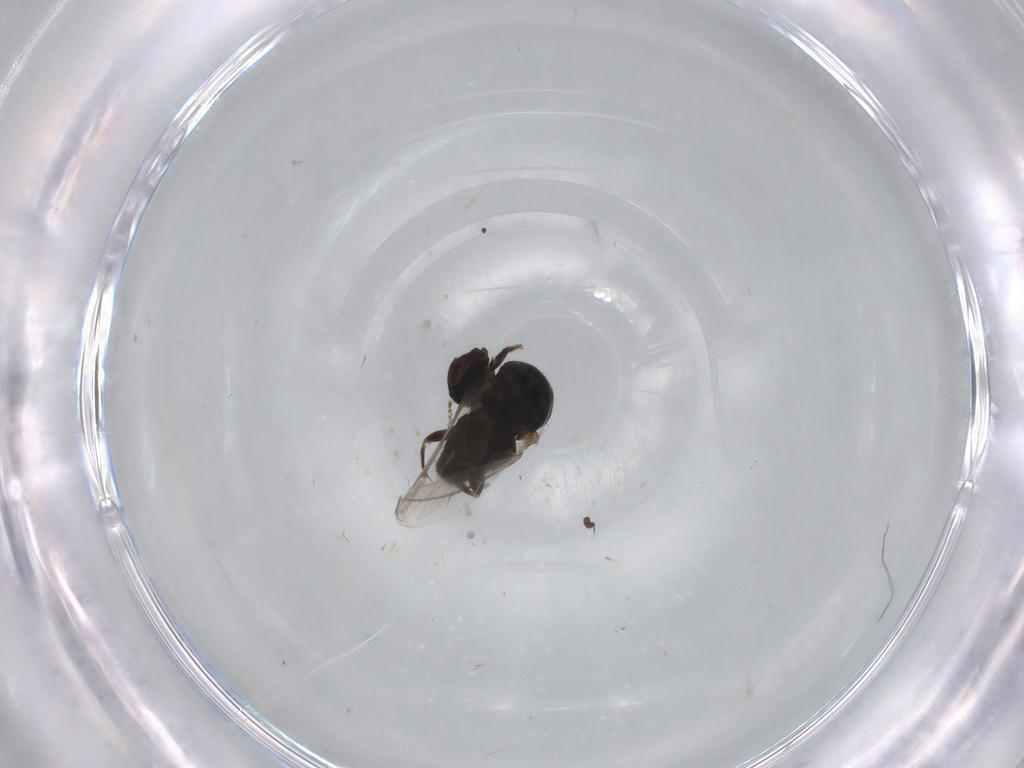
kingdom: Animalia
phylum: Arthropoda
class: Insecta
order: Diptera
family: Milichiidae
